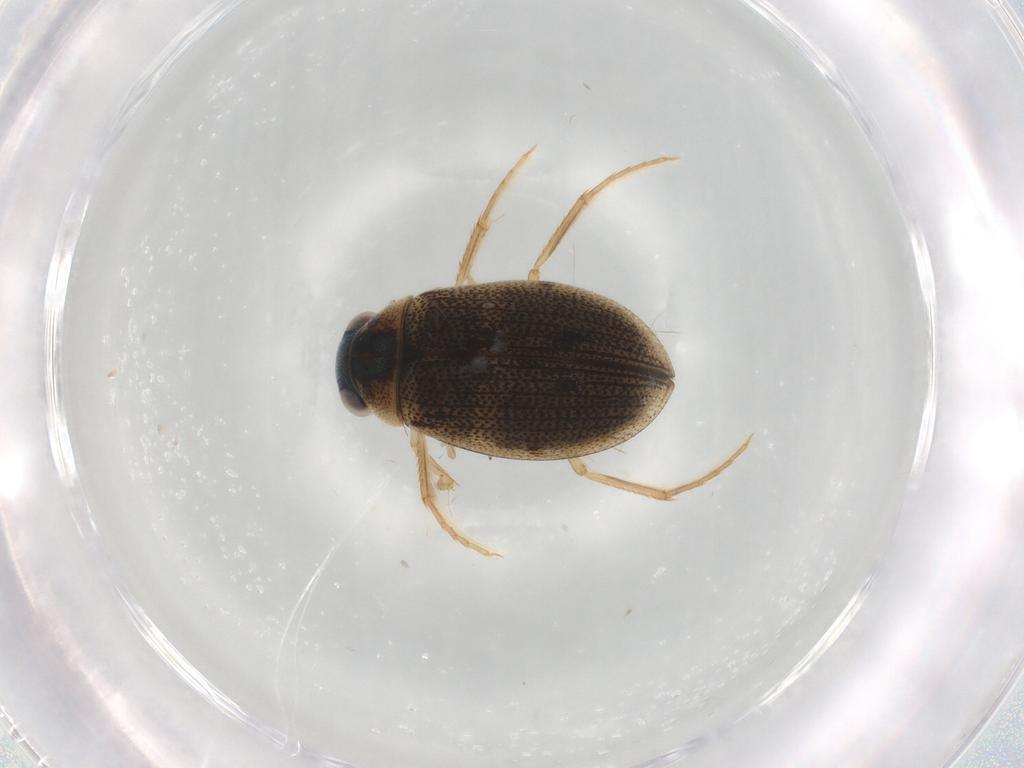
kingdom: Animalia
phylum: Arthropoda
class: Insecta
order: Coleoptera
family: Hydrophilidae
